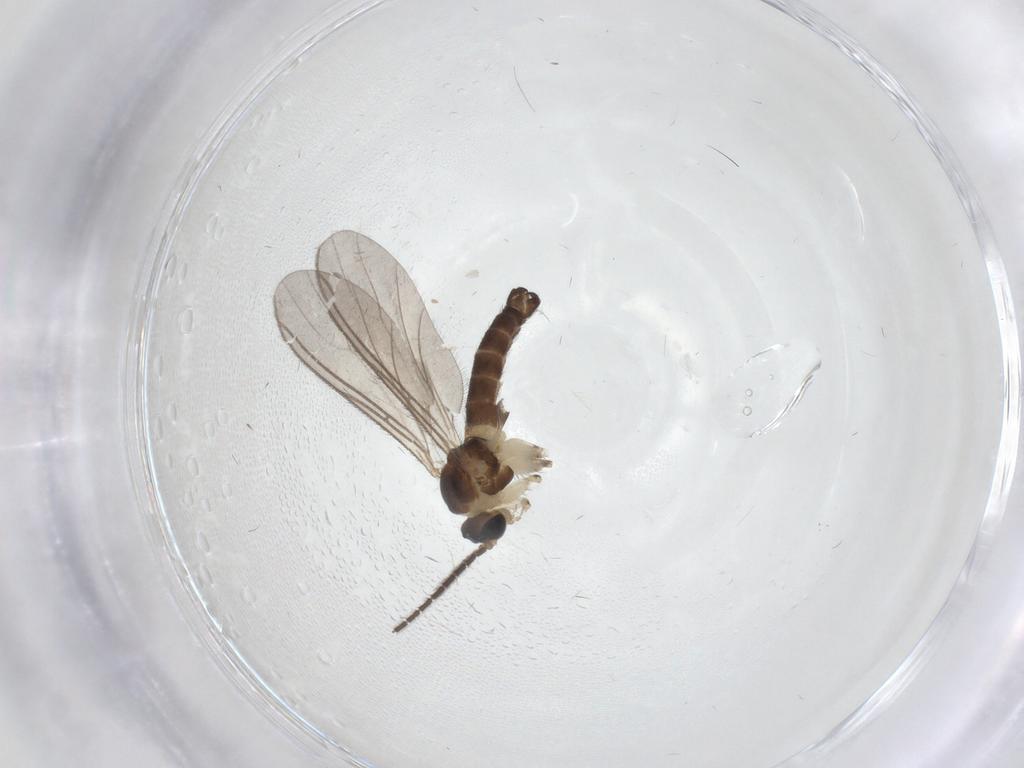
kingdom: Animalia
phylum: Arthropoda
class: Insecta
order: Diptera
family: Sciaridae
